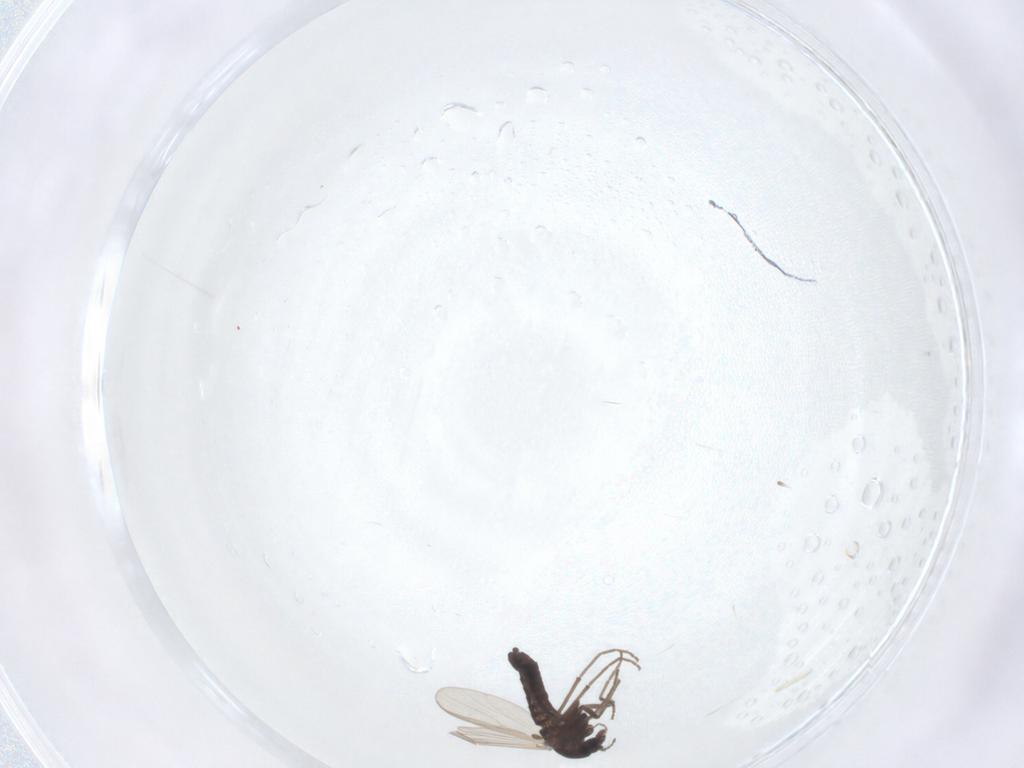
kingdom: Animalia
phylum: Arthropoda
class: Insecta
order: Diptera
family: Chironomidae
